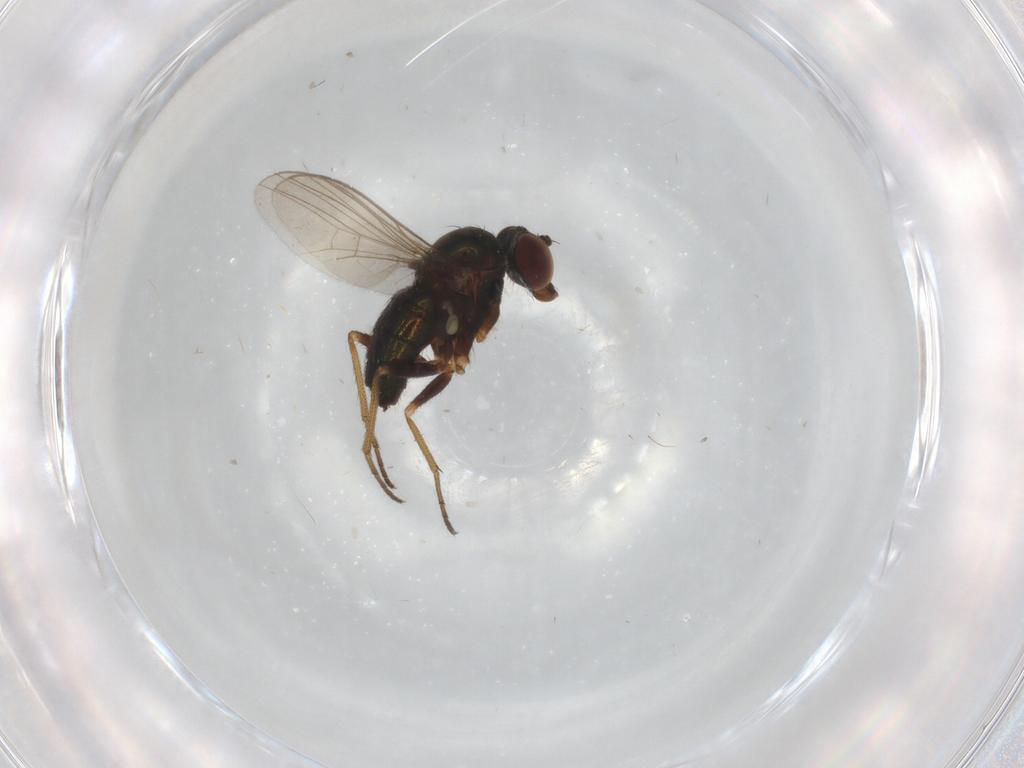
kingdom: Animalia
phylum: Arthropoda
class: Insecta
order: Diptera
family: Dolichopodidae
